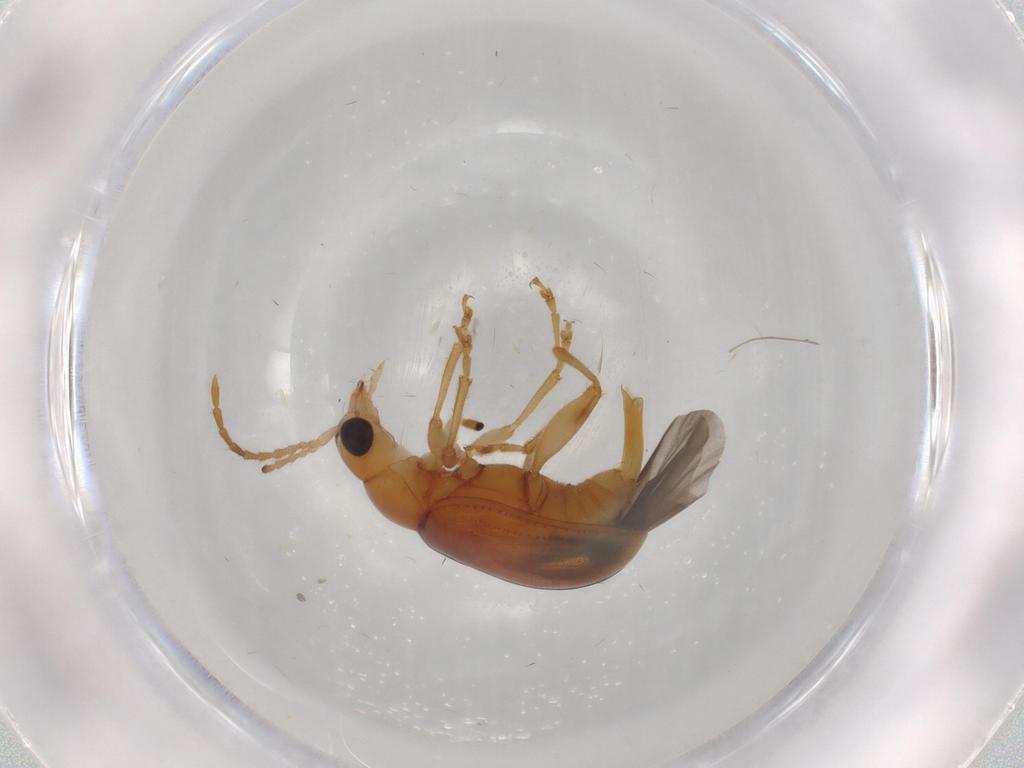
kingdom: Animalia
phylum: Arthropoda
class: Insecta
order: Coleoptera
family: Chrysomelidae
